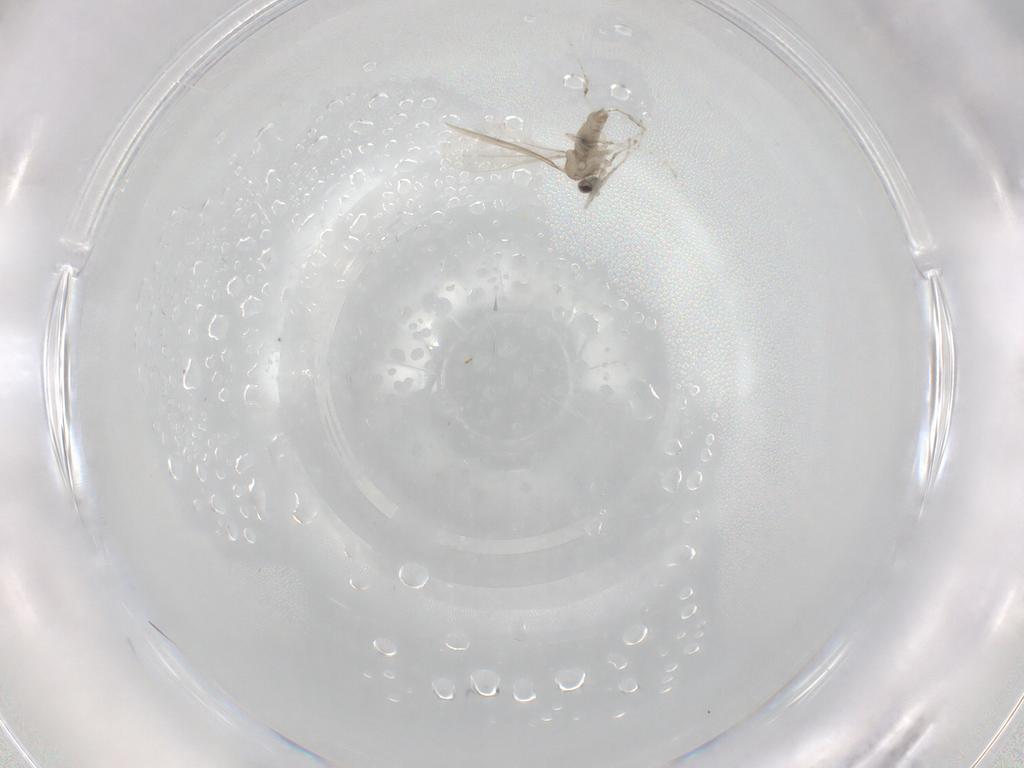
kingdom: Animalia
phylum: Arthropoda
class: Insecta
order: Diptera
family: Cecidomyiidae
